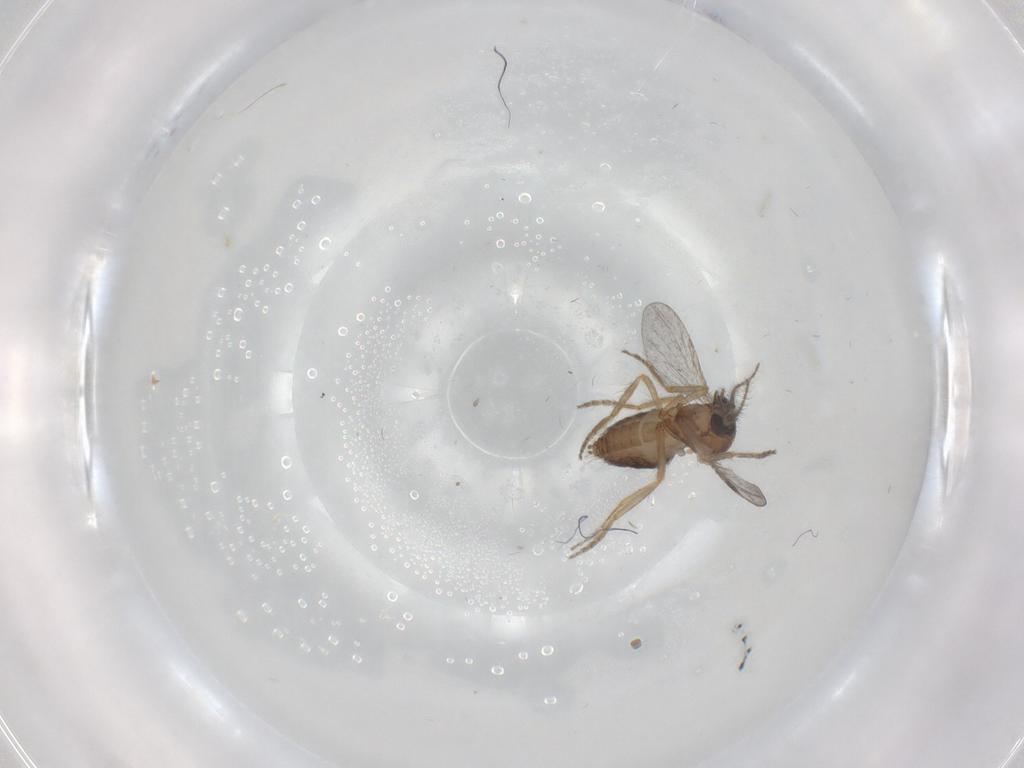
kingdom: Animalia
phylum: Arthropoda
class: Insecta
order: Diptera
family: Ceratopogonidae
